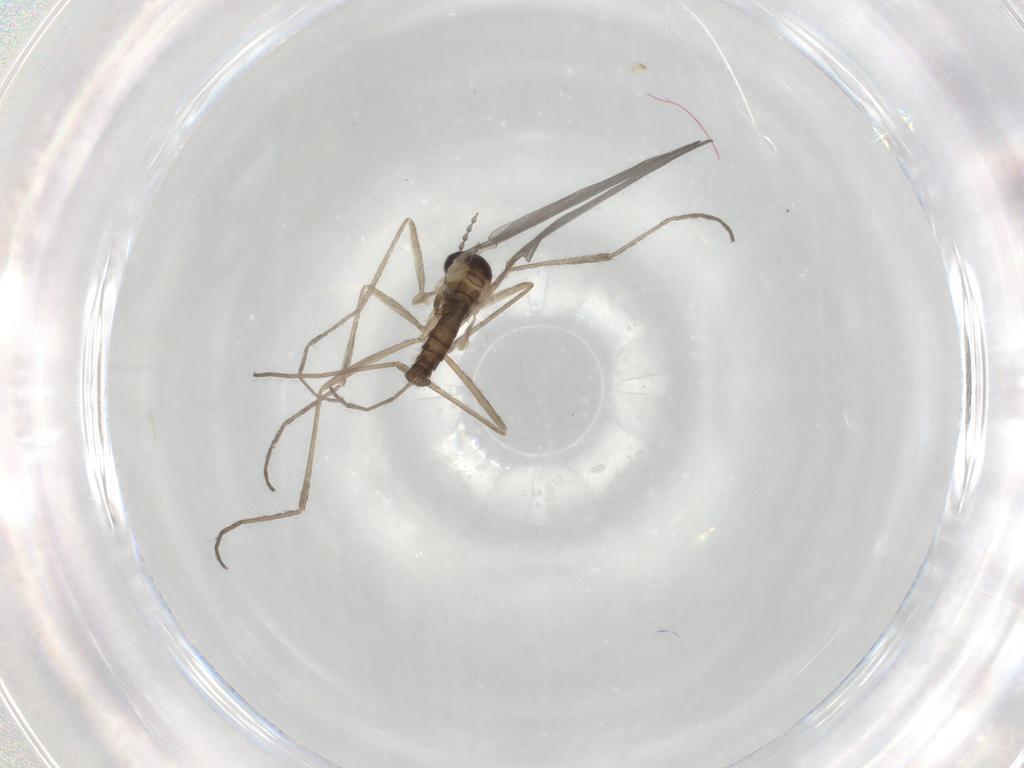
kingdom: Animalia
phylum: Arthropoda
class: Insecta
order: Diptera
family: Cecidomyiidae
